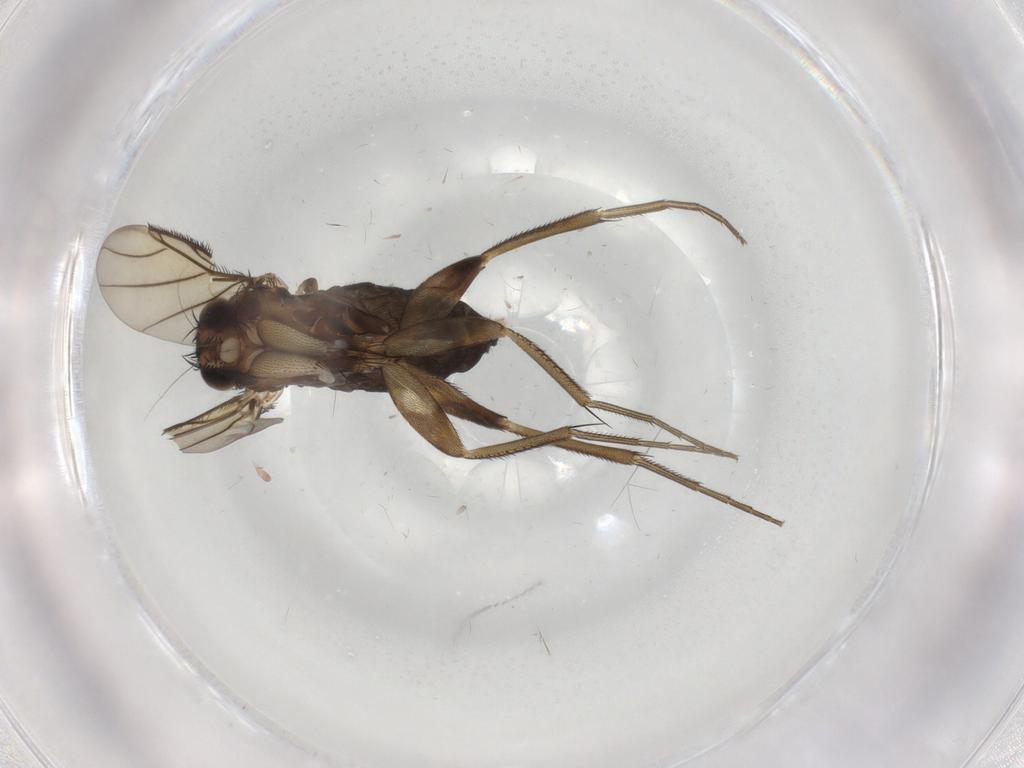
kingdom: Animalia
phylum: Arthropoda
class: Insecta
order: Diptera
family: Phoridae
